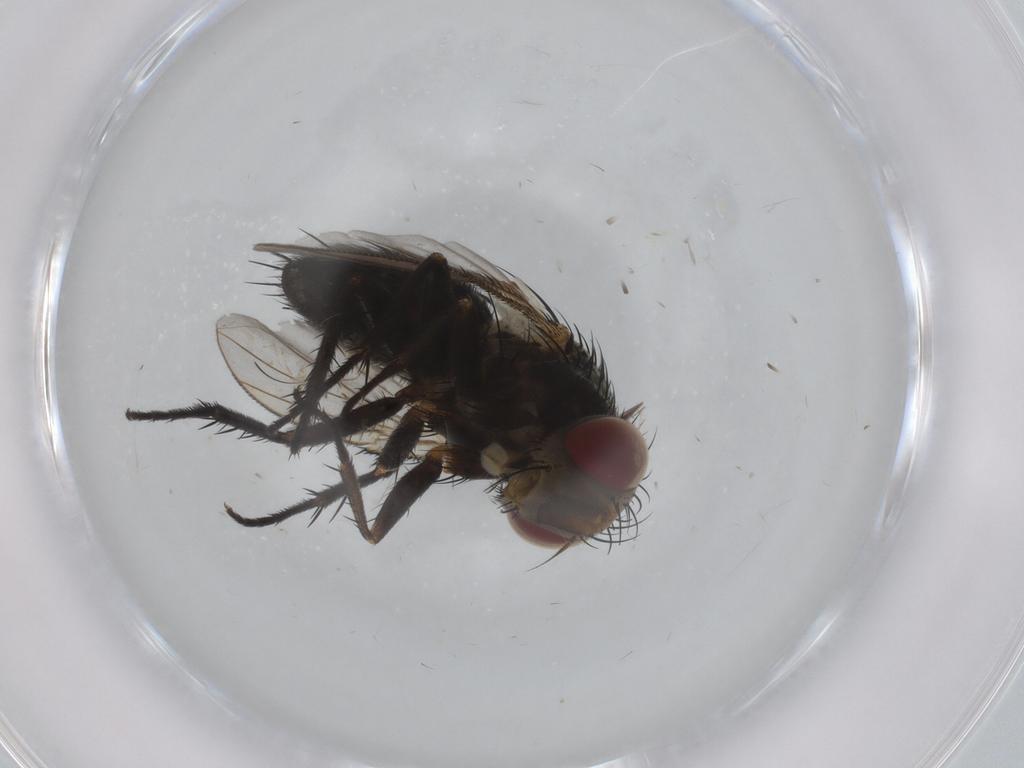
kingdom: Animalia
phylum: Arthropoda
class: Insecta
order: Diptera
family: Tachinidae
